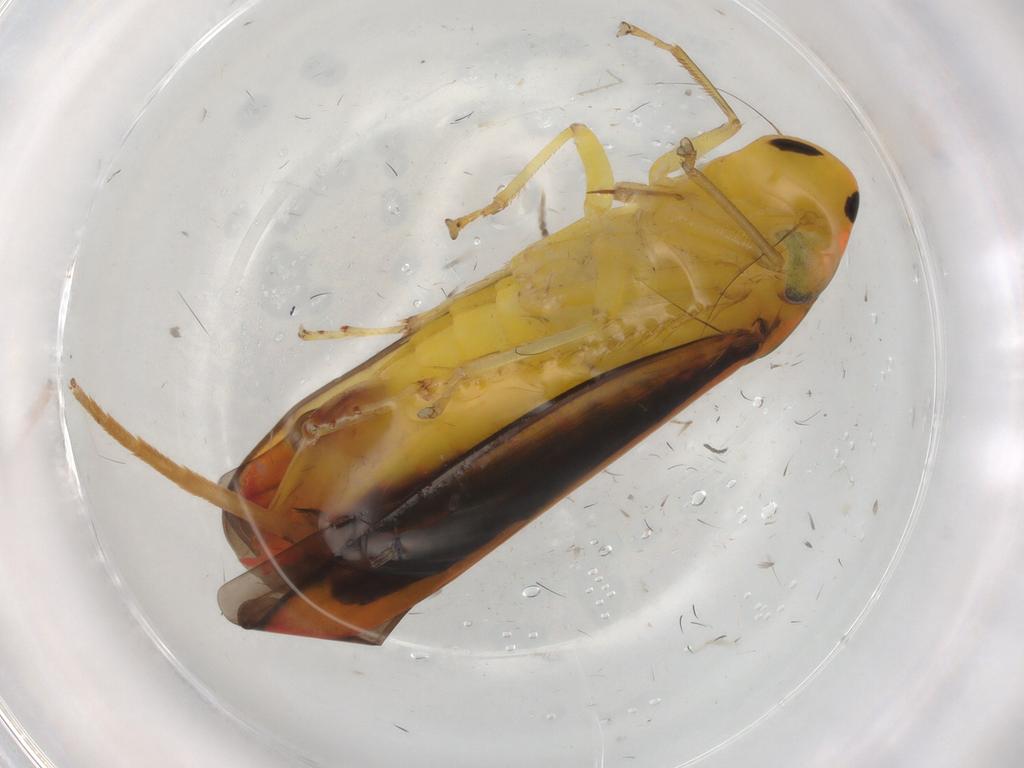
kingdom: Animalia
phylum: Arthropoda
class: Insecta
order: Hemiptera
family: Cicadellidae
